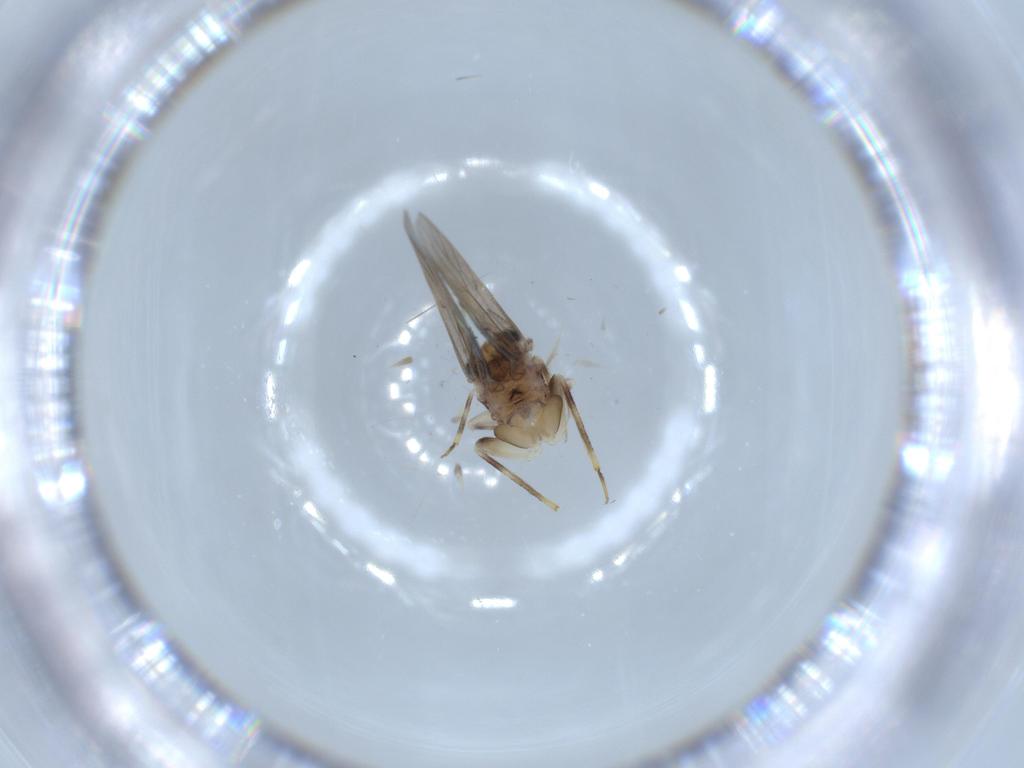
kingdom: Animalia
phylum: Arthropoda
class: Insecta
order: Psocodea
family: Lepidopsocidae
